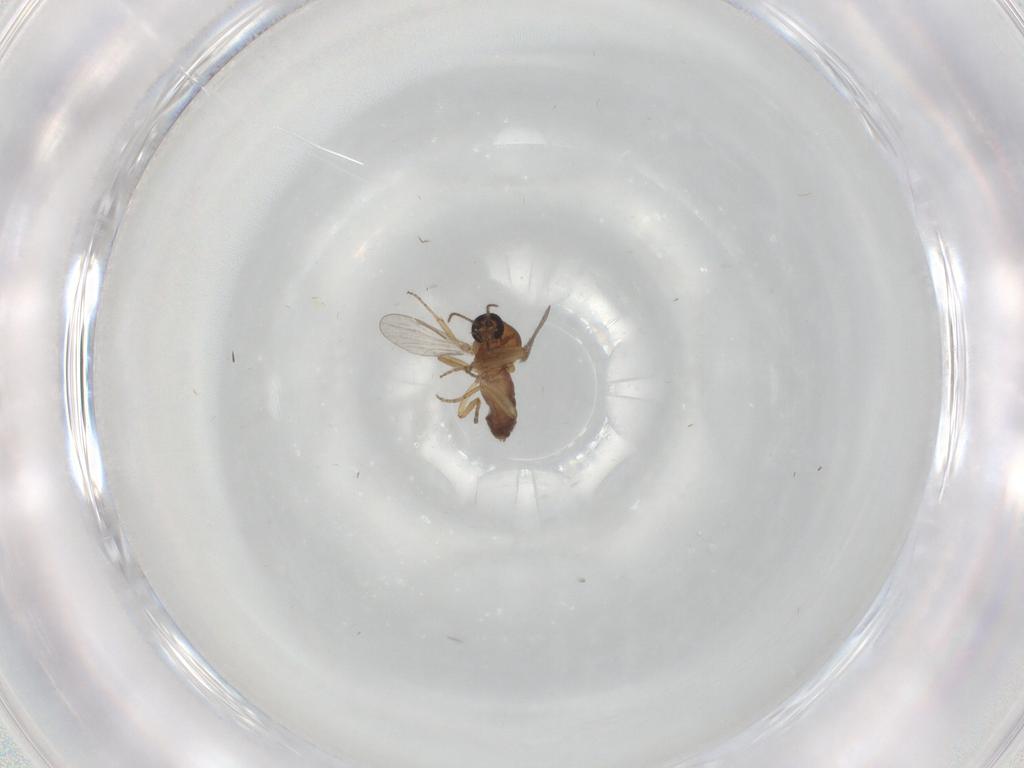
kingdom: Animalia
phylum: Arthropoda
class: Insecta
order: Diptera
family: Ceratopogonidae
